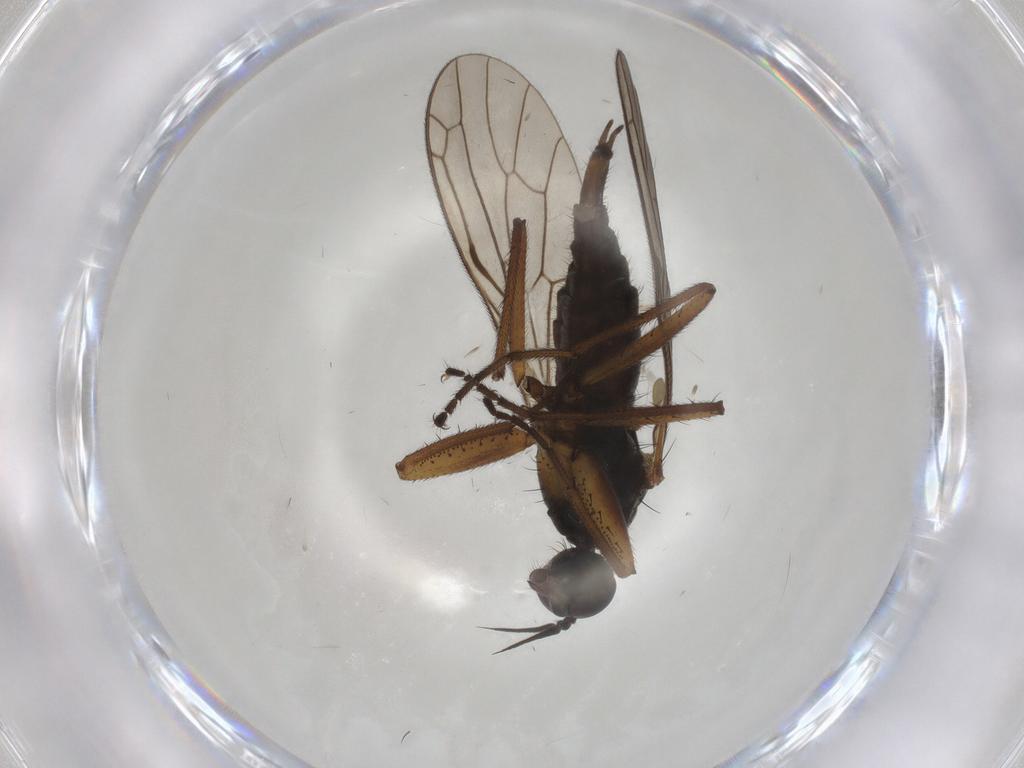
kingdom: Animalia
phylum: Arthropoda
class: Insecta
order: Diptera
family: Empididae
